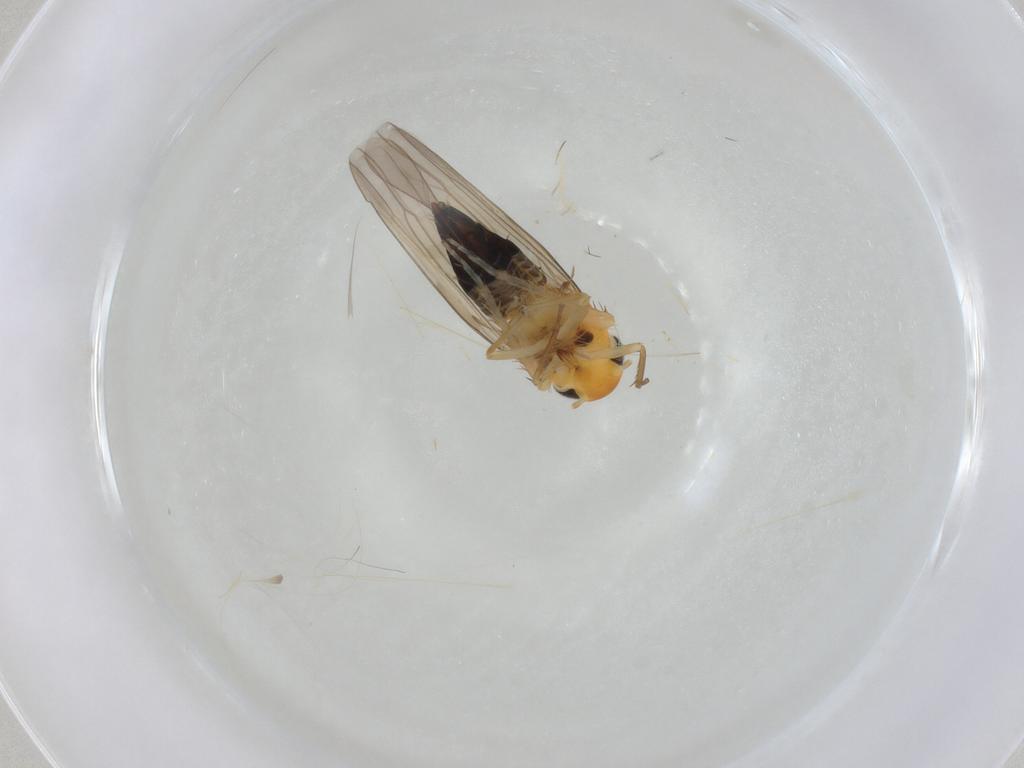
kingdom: Animalia
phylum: Arthropoda
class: Insecta
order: Hemiptera
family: Cicadellidae
